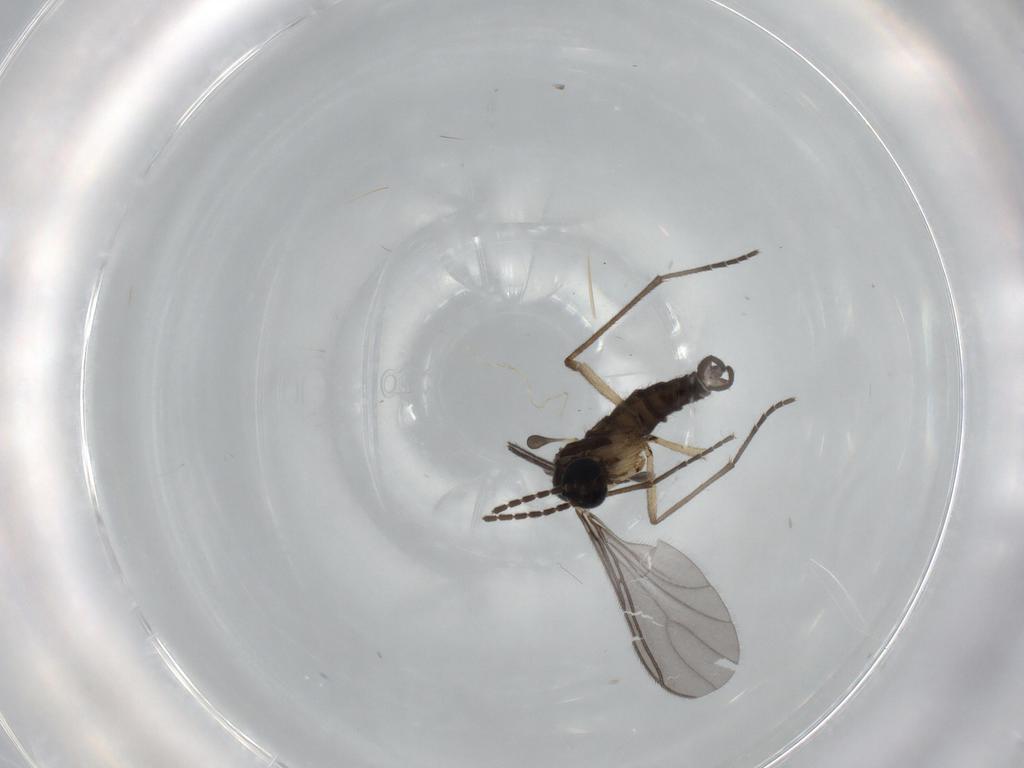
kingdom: Animalia
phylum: Arthropoda
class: Insecta
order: Diptera
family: Sciaridae
